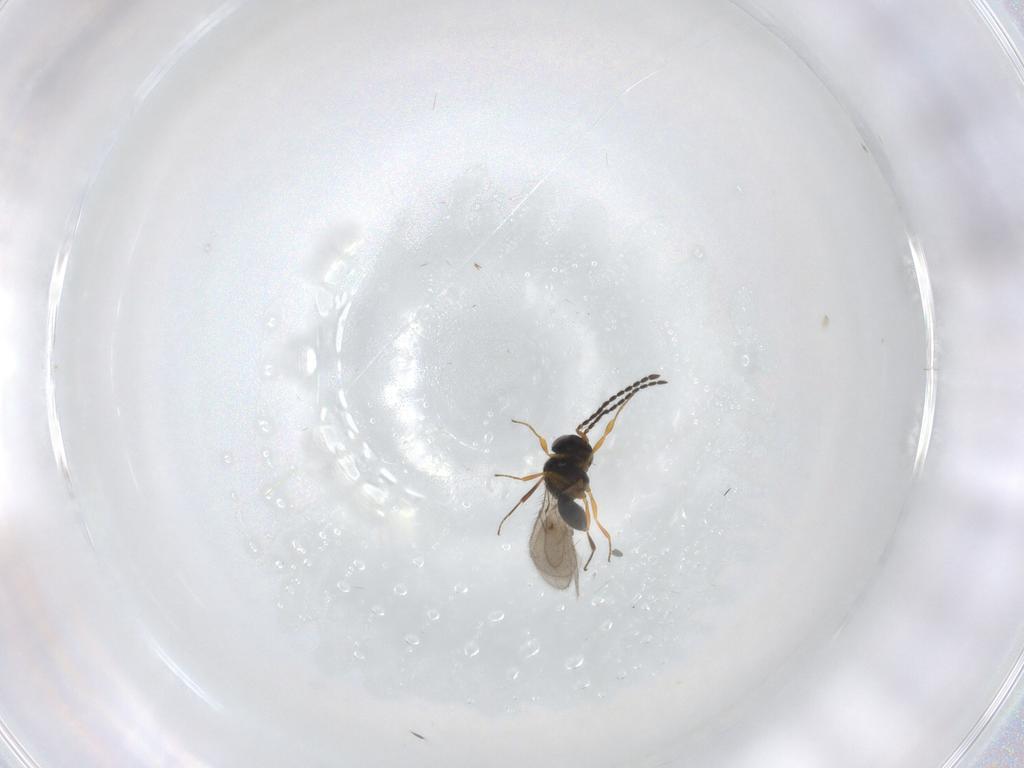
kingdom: Animalia
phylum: Arthropoda
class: Insecta
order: Hymenoptera
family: Scelionidae
